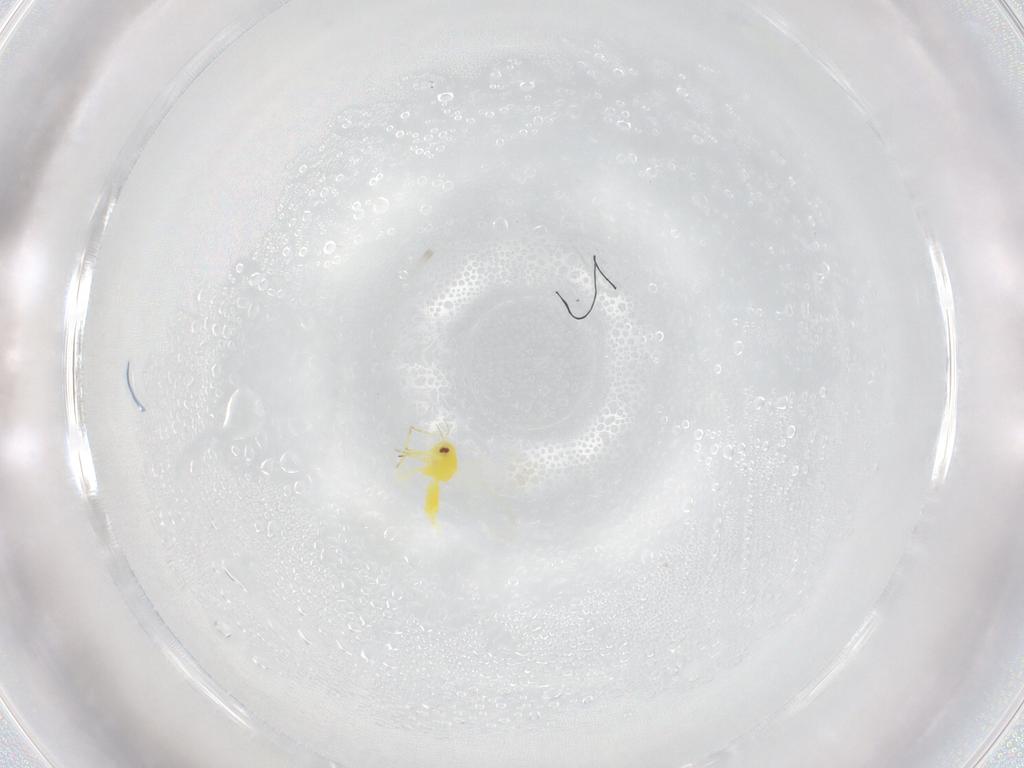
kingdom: Animalia
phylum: Arthropoda
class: Insecta
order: Hemiptera
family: Aleyrodidae
